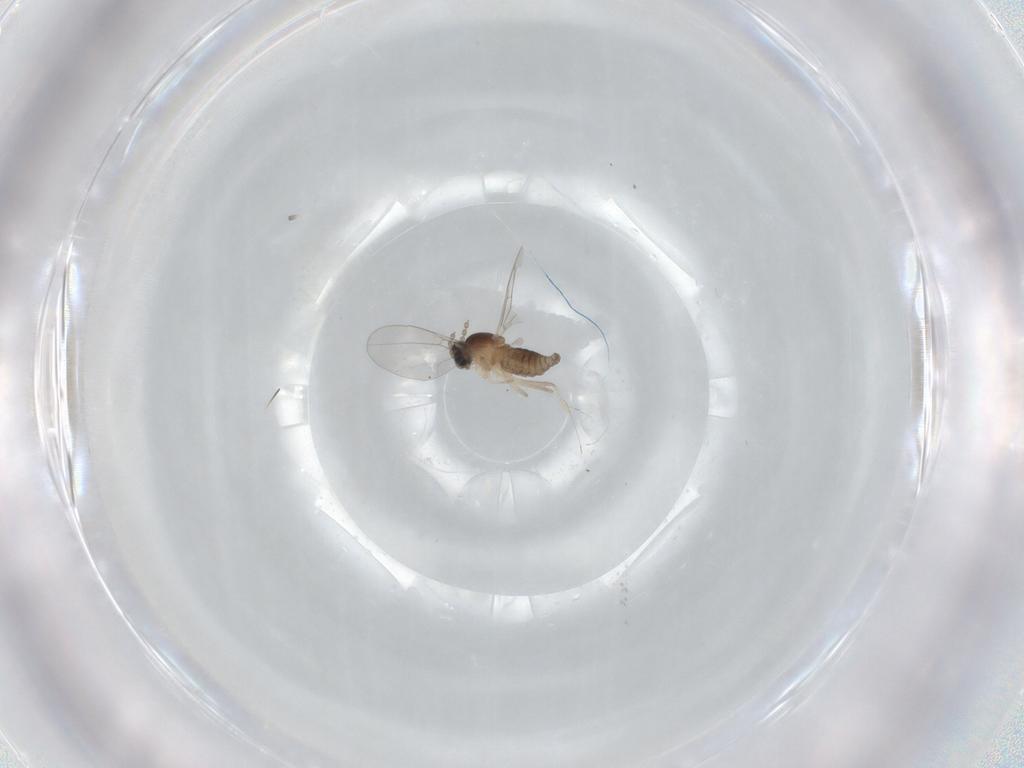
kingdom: Animalia
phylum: Arthropoda
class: Insecta
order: Diptera
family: Cecidomyiidae
